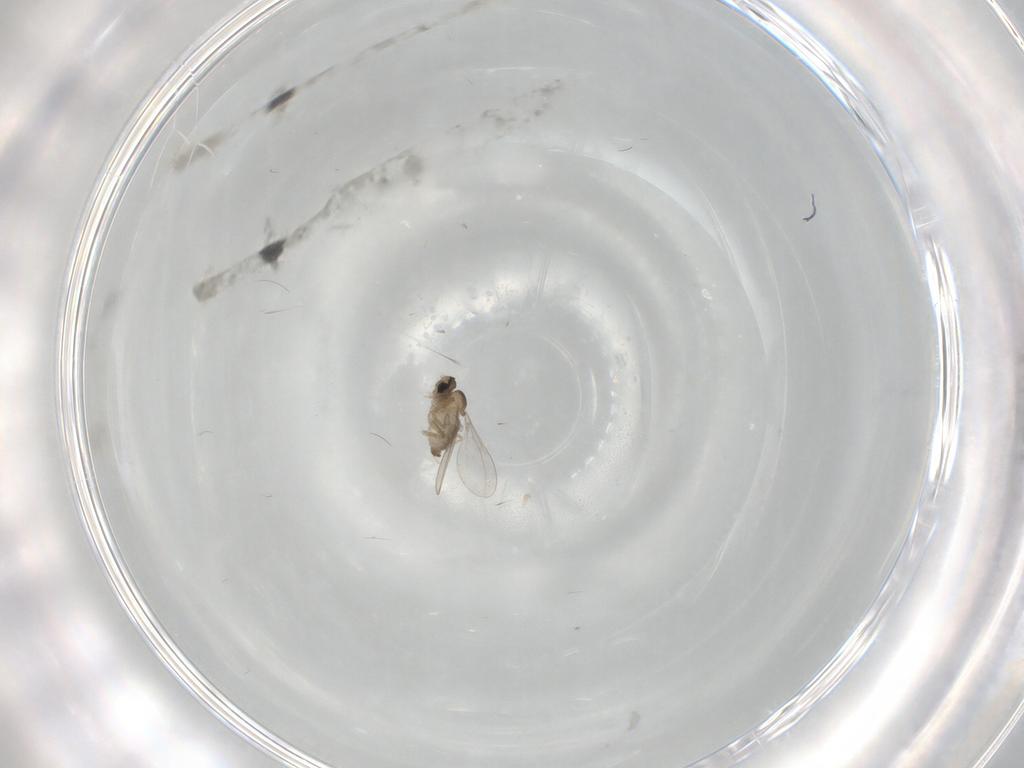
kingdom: Animalia
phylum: Arthropoda
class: Insecta
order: Diptera
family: Cecidomyiidae
